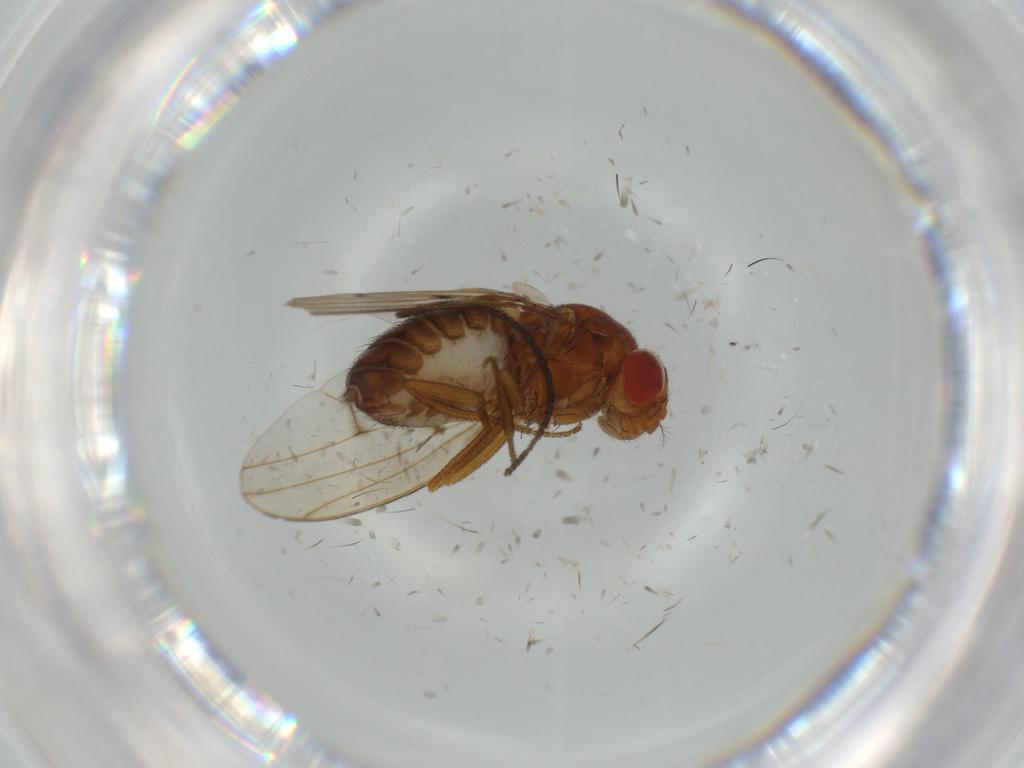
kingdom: Animalia
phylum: Arthropoda
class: Insecta
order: Diptera
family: Drosophilidae
